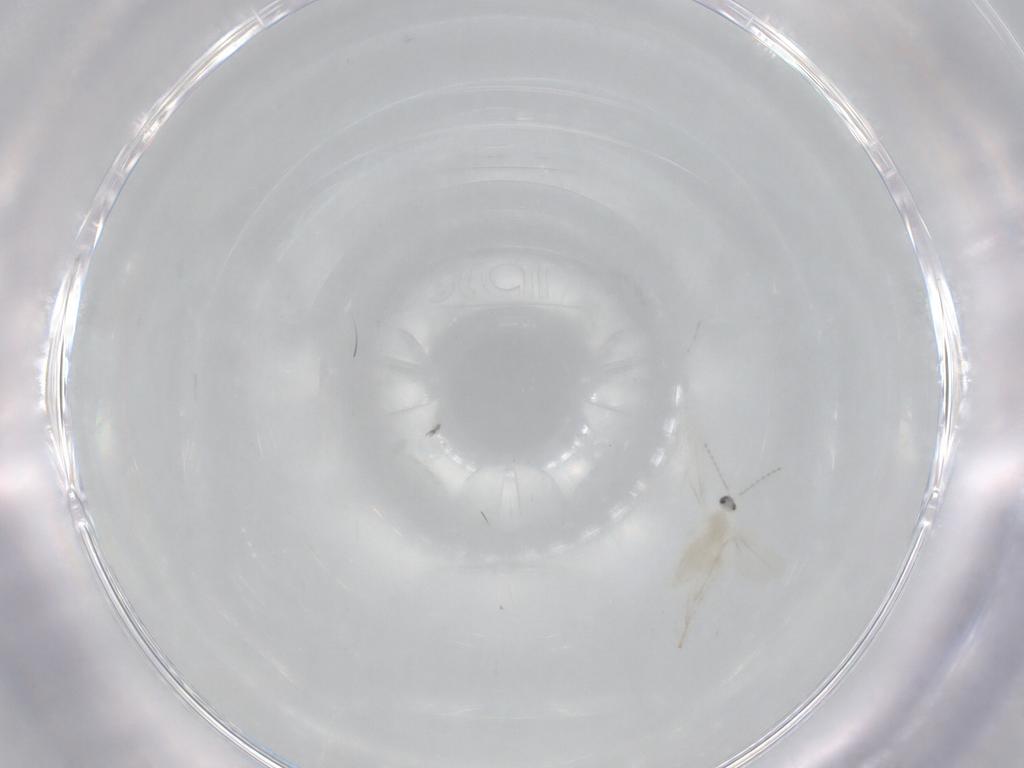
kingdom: Animalia
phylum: Arthropoda
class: Insecta
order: Diptera
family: Cecidomyiidae
